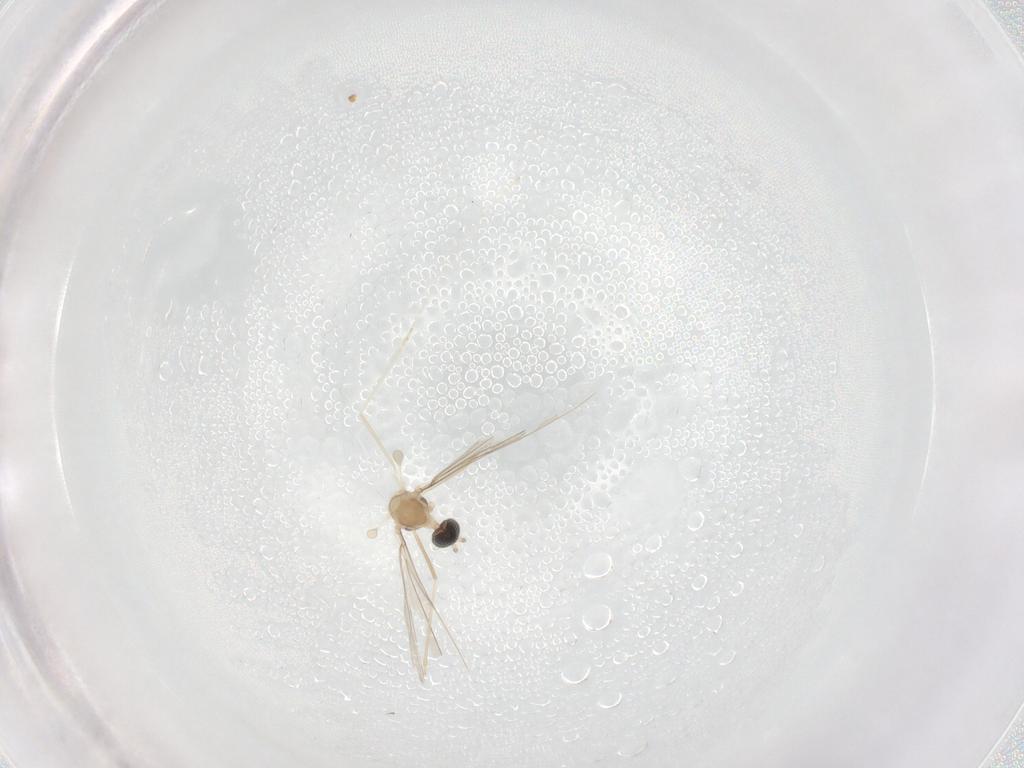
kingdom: Animalia
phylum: Arthropoda
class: Insecta
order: Diptera
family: Cecidomyiidae
